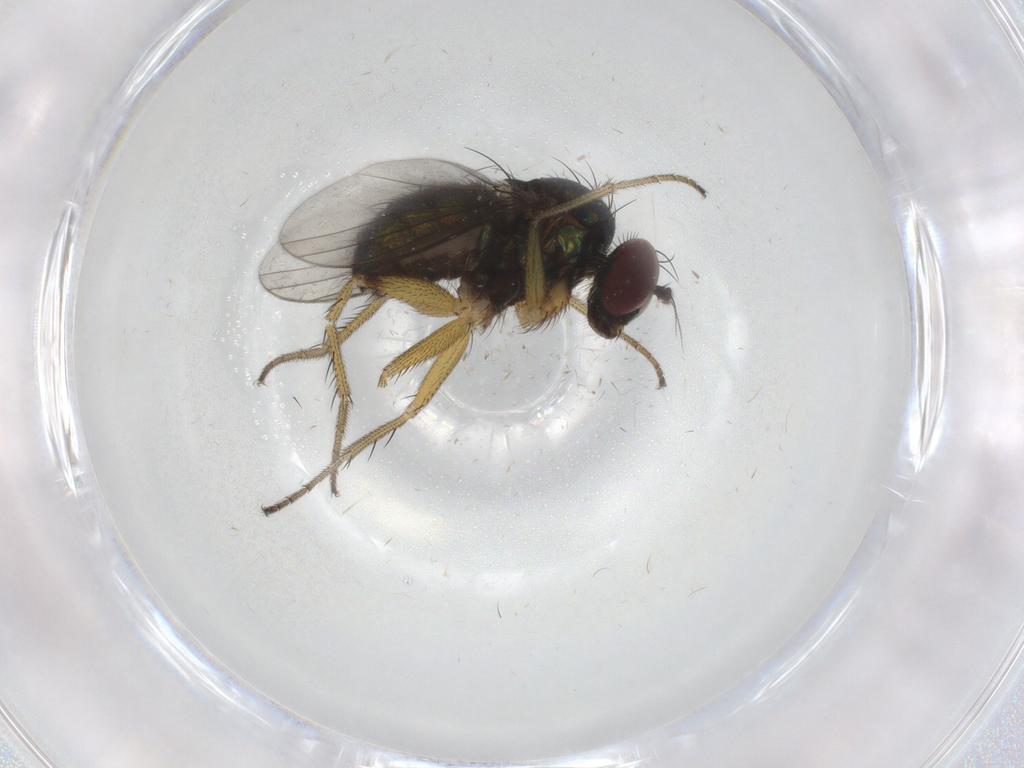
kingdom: Animalia
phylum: Arthropoda
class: Insecta
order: Diptera
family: Dolichopodidae
